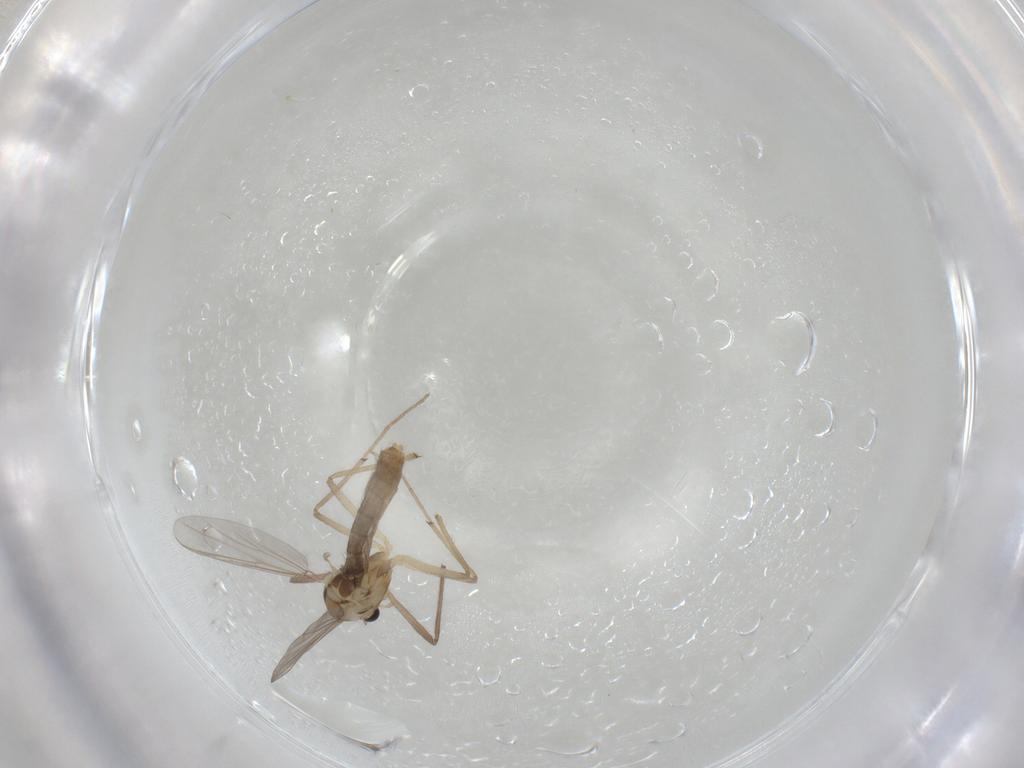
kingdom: Animalia
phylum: Arthropoda
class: Insecta
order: Diptera
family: Chironomidae
